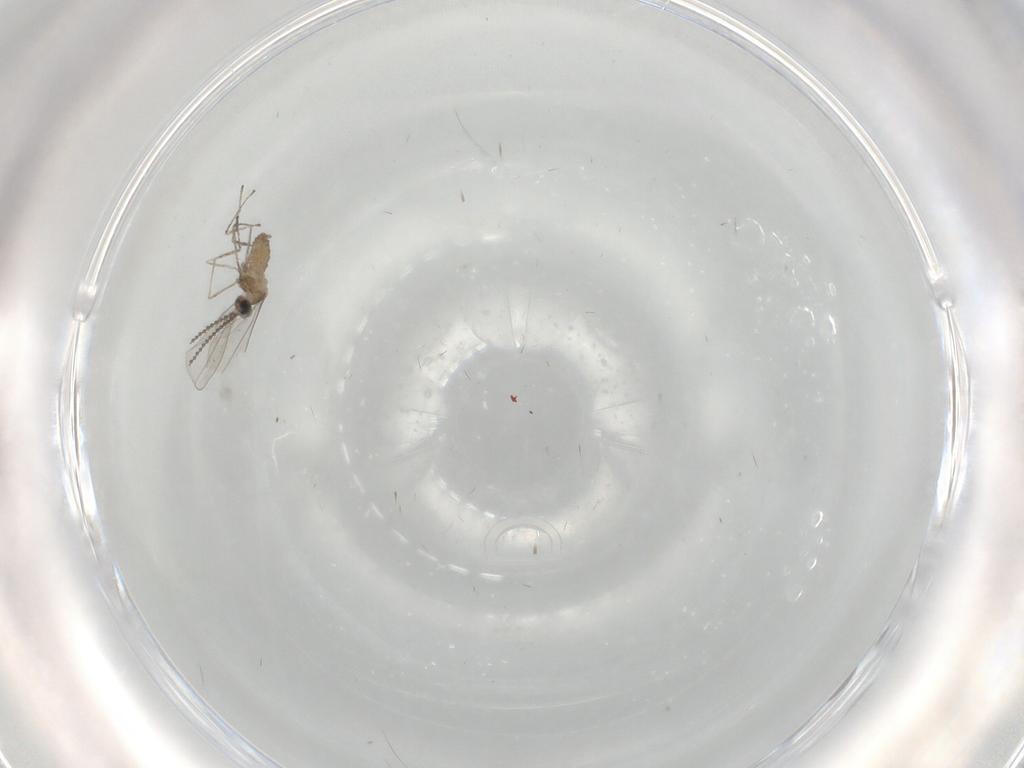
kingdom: Animalia
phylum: Arthropoda
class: Insecta
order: Diptera
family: Cecidomyiidae
